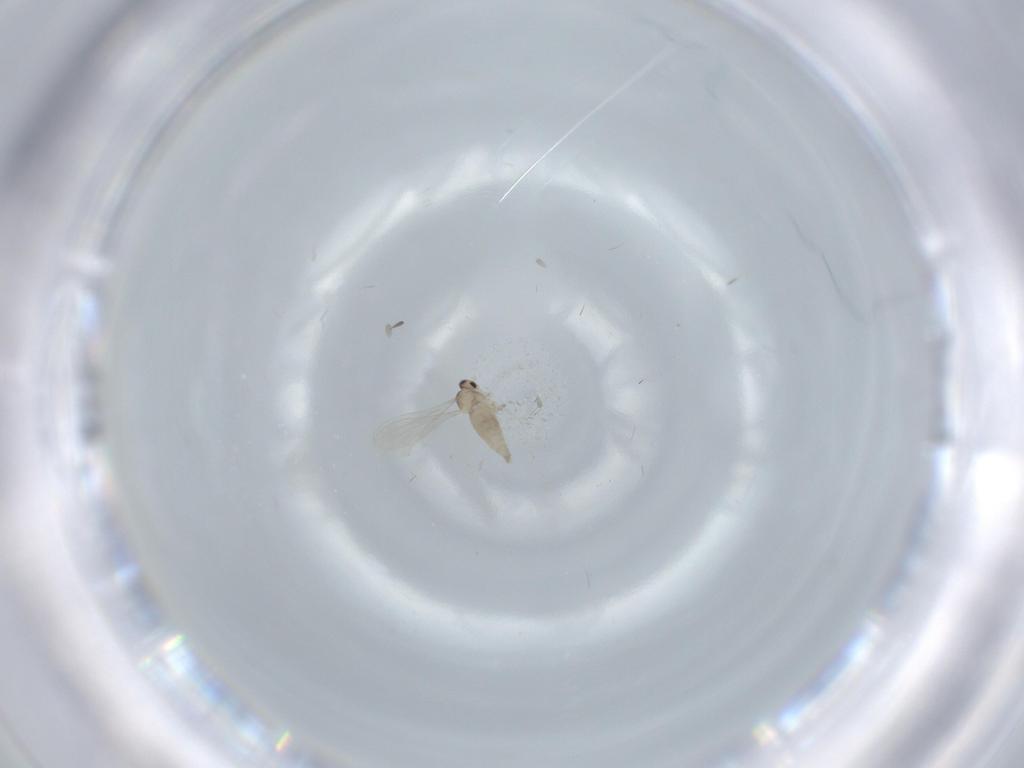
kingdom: Animalia
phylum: Arthropoda
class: Insecta
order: Diptera
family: Cecidomyiidae
